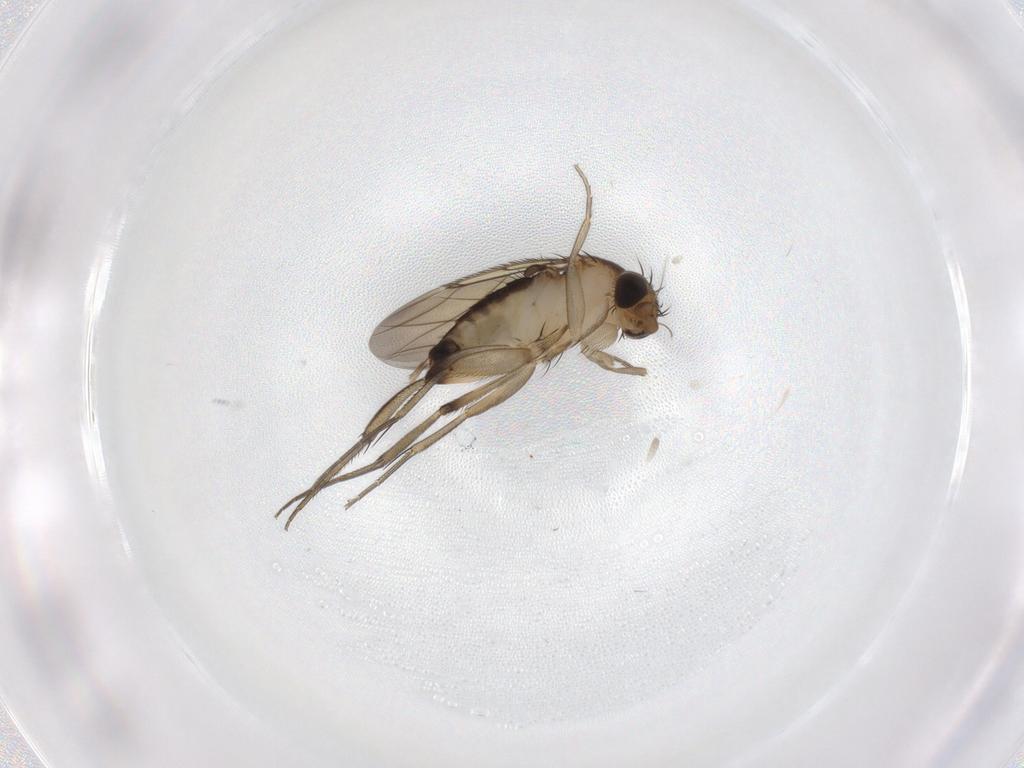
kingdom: Animalia
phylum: Arthropoda
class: Insecta
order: Diptera
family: Phoridae
